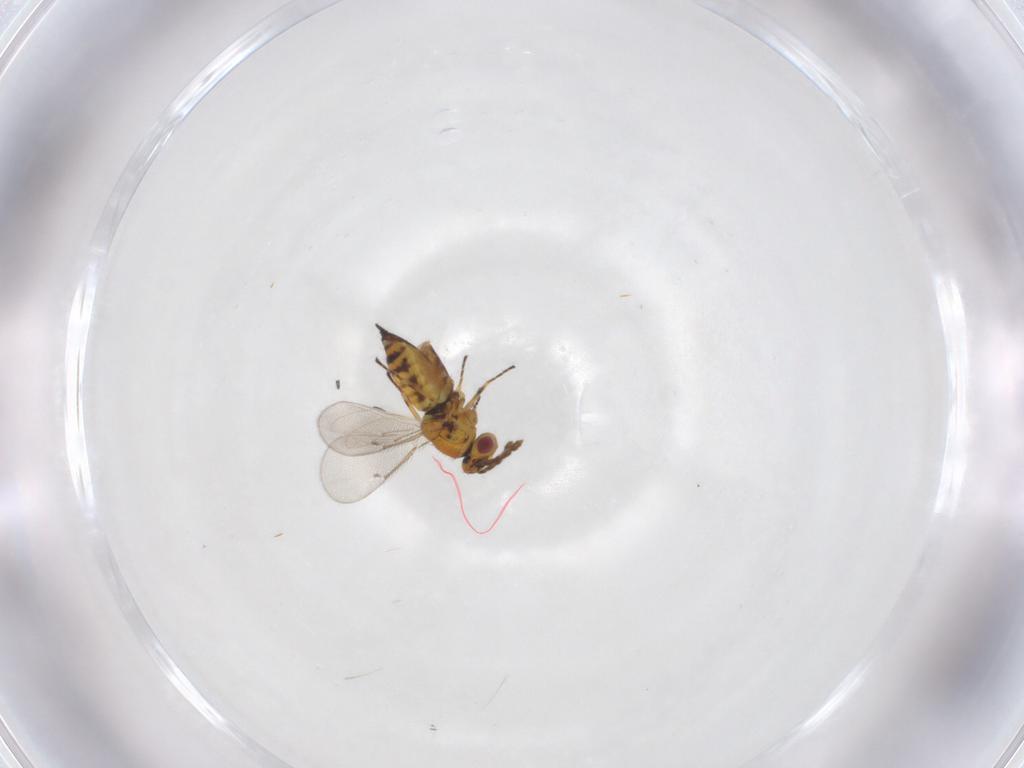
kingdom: Animalia
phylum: Arthropoda
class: Insecta
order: Hymenoptera
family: Eulophidae
